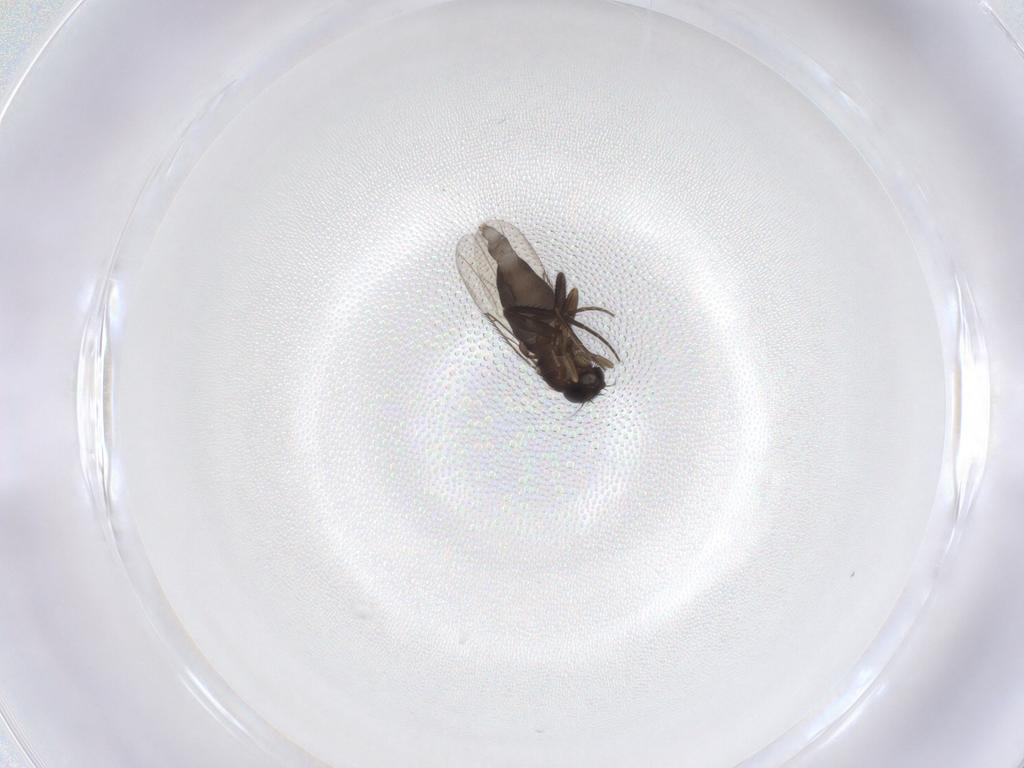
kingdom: Animalia
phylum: Arthropoda
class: Insecta
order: Diptera
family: Phoridae
